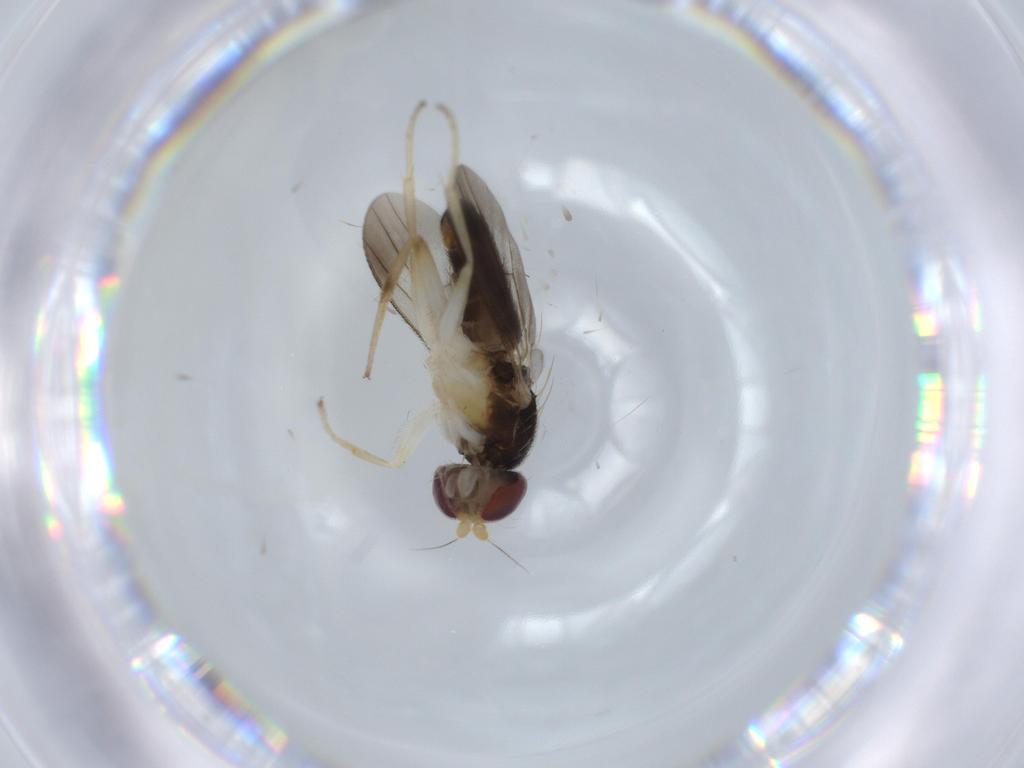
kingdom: Animalia
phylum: Arthropoda
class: Insecta
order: Diptera
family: Clusiidae
